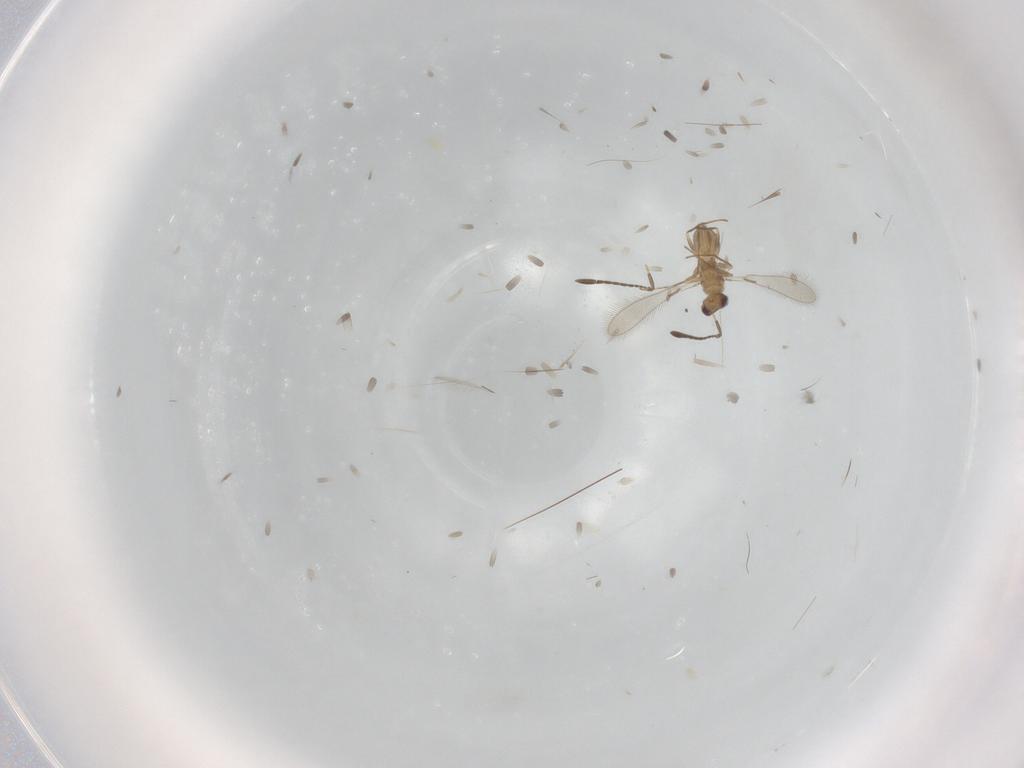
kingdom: Animalia
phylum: Arthropoda
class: Insecta
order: Hymenoptera
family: Mymaridae
